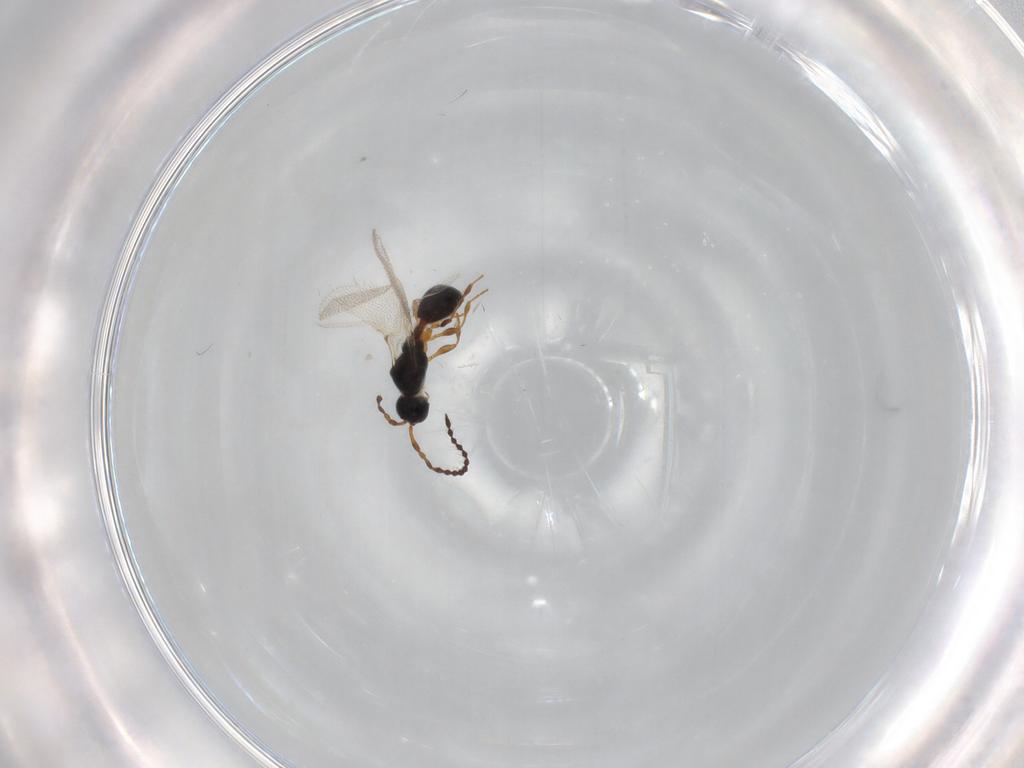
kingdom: Animalia
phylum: Arthropoda
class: Insecta
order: Hymenoptera
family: Diapriidae
